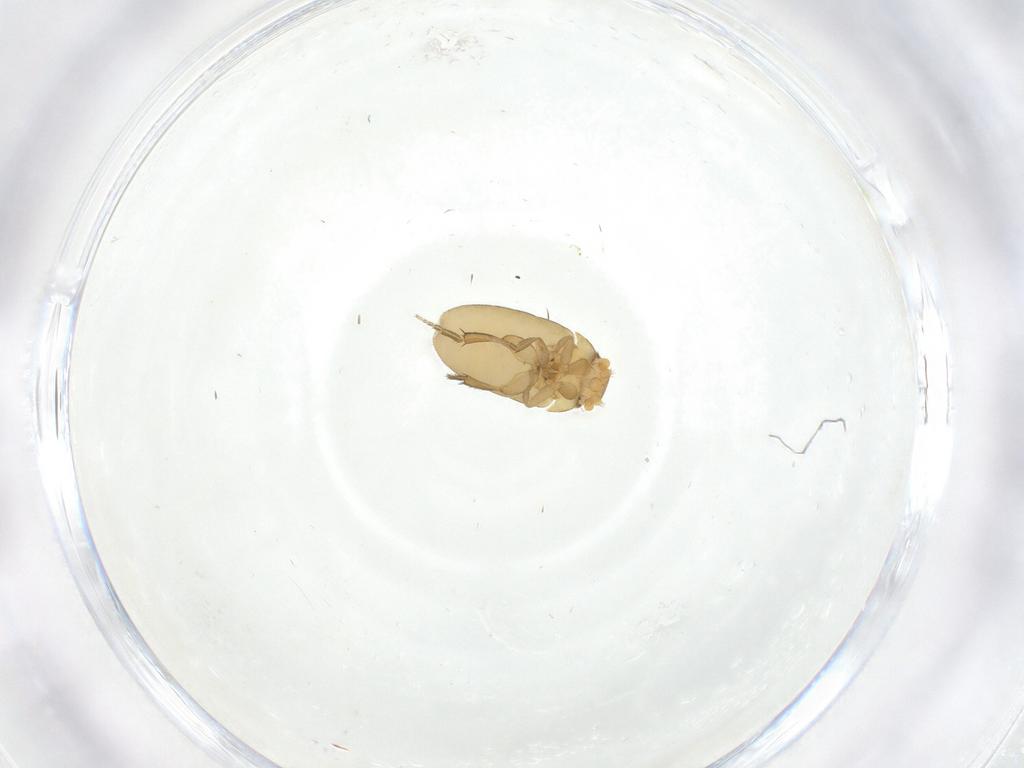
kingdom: Animalia
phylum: Arthropoda
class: Insecta
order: Diptera
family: Phoridae
